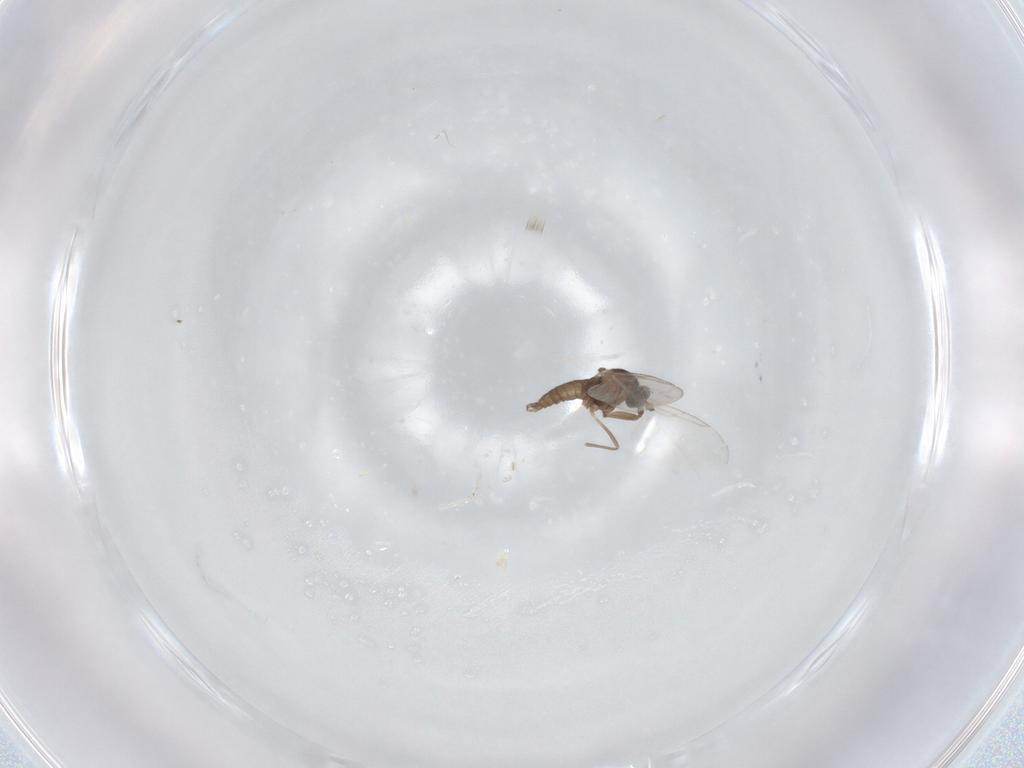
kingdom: Animalia
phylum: Arthropoda
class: Insecta
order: Diptera
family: Cecidomyiidae
